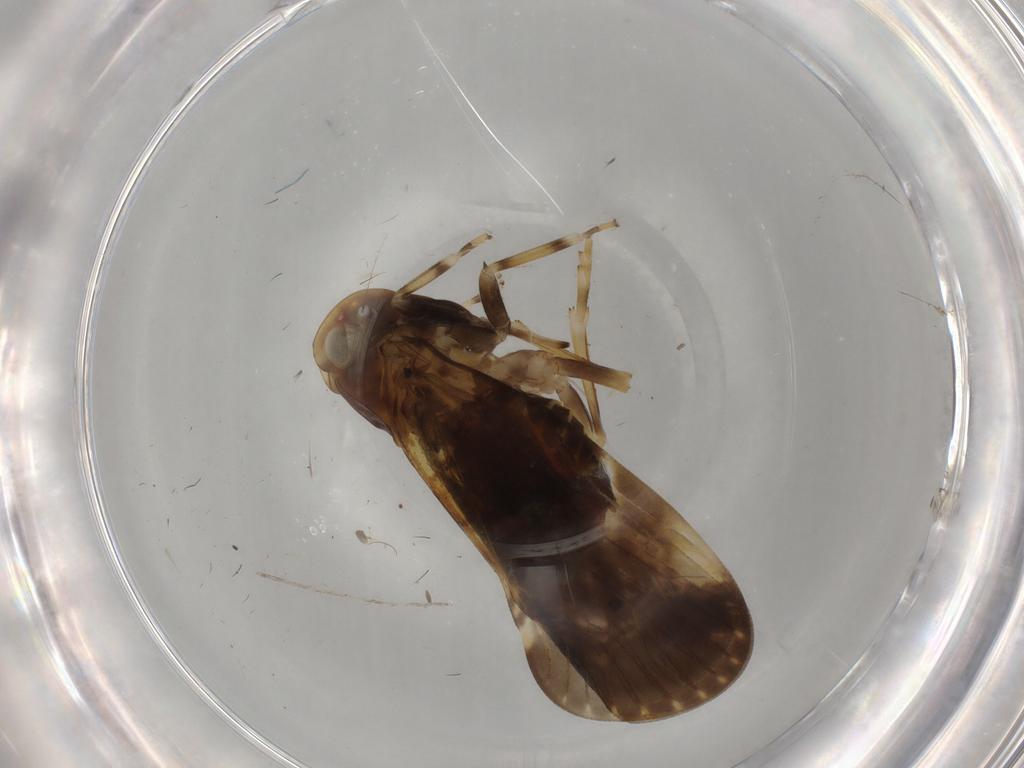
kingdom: Animalia
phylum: Arthropoda
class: Insecta
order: Hemiptera
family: Cixiidae
